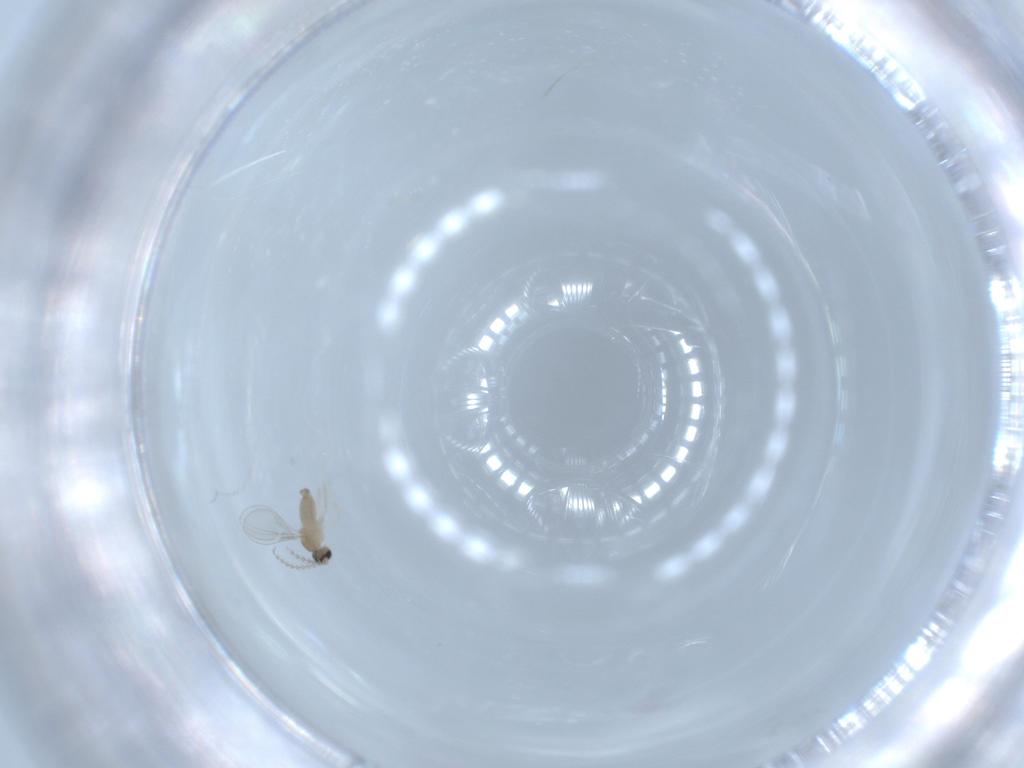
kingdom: Animalia
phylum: Arthropoda
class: Insecta
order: Diptera
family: Cecidomyiidae
